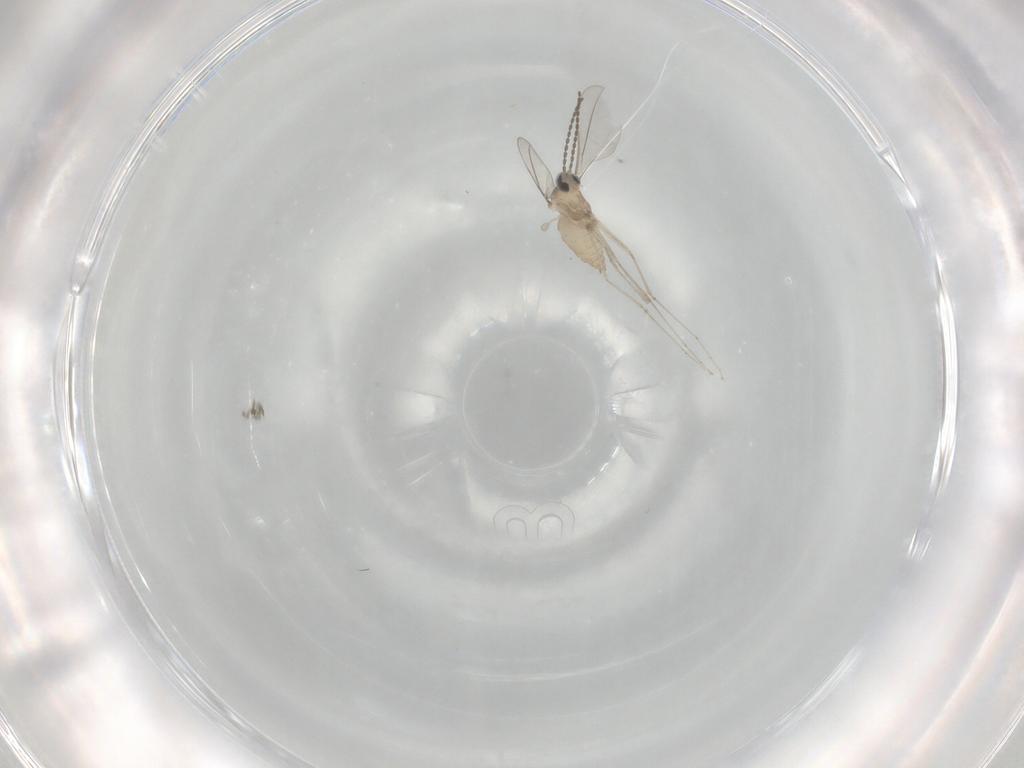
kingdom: Animalia
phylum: Arthropoda
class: Insecta
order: Diptera
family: Cecidomyiidae
